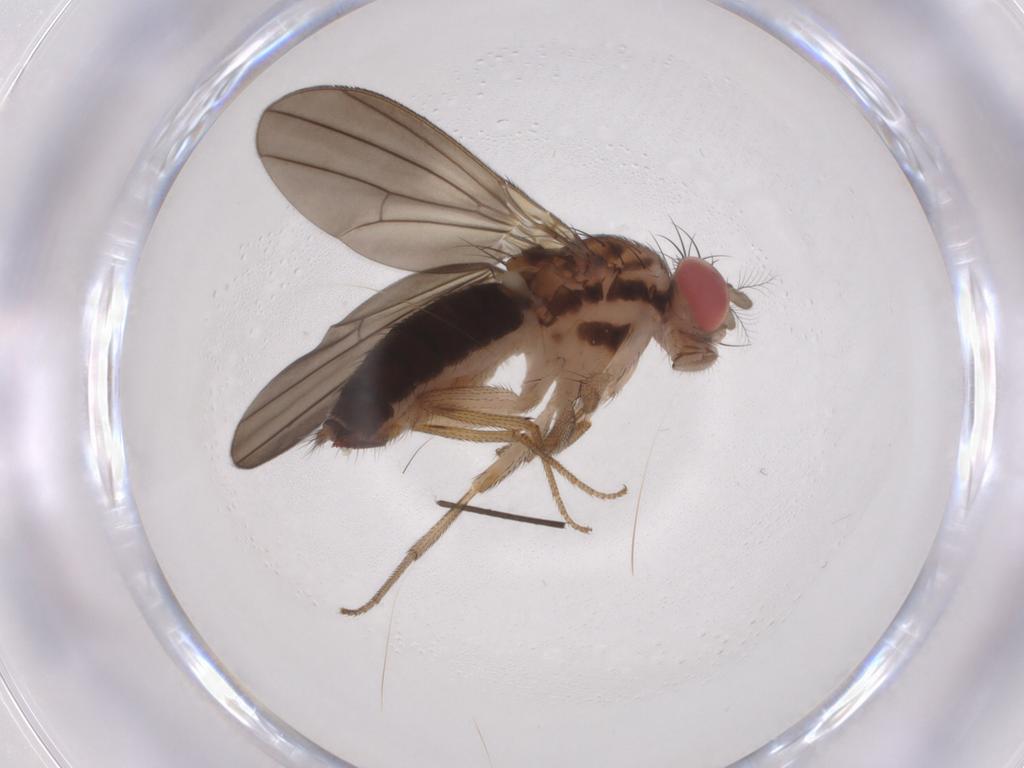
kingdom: Animalia
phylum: Arthropoda
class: Insecta
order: Diptera
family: Drosophilidae
